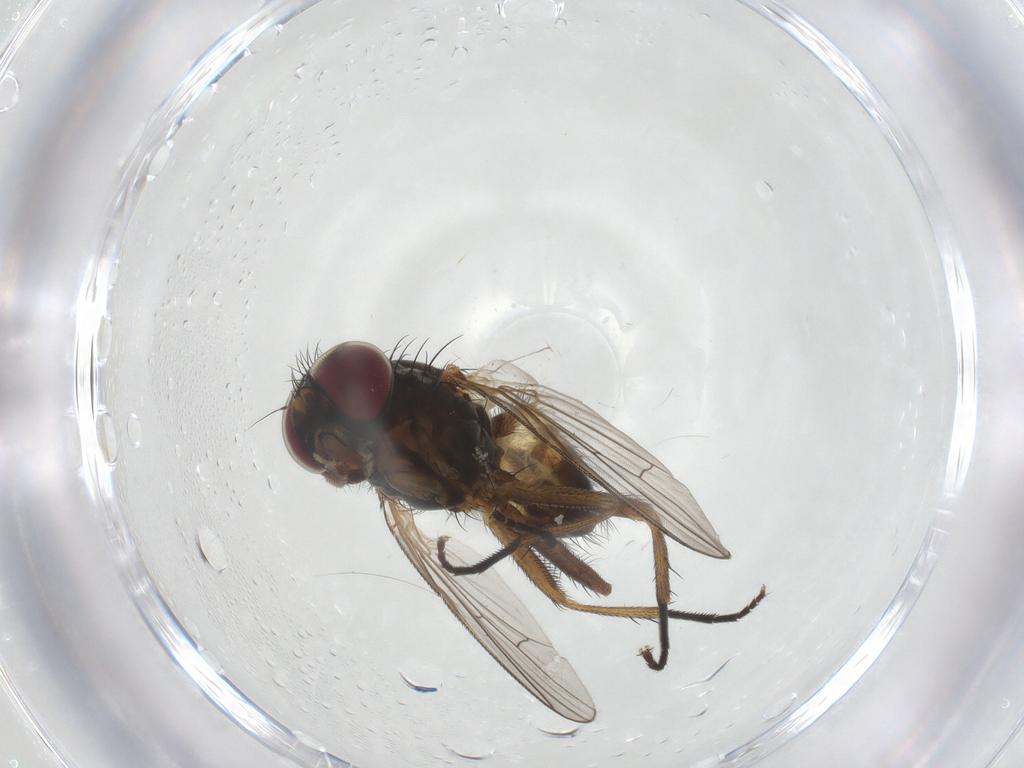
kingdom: Animalia
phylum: Arthropoda
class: Insecta
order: Diptera
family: Fannia
